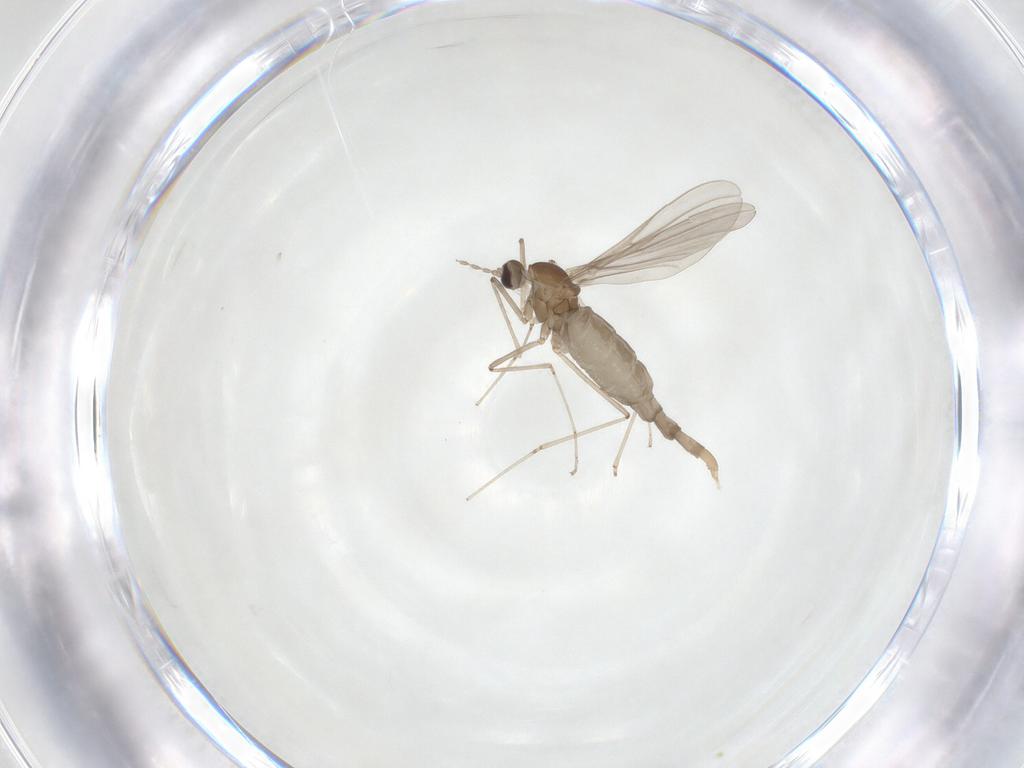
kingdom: Animalia
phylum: Arthropoda
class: Insecta
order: Diptera
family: Cecidomyiidae
